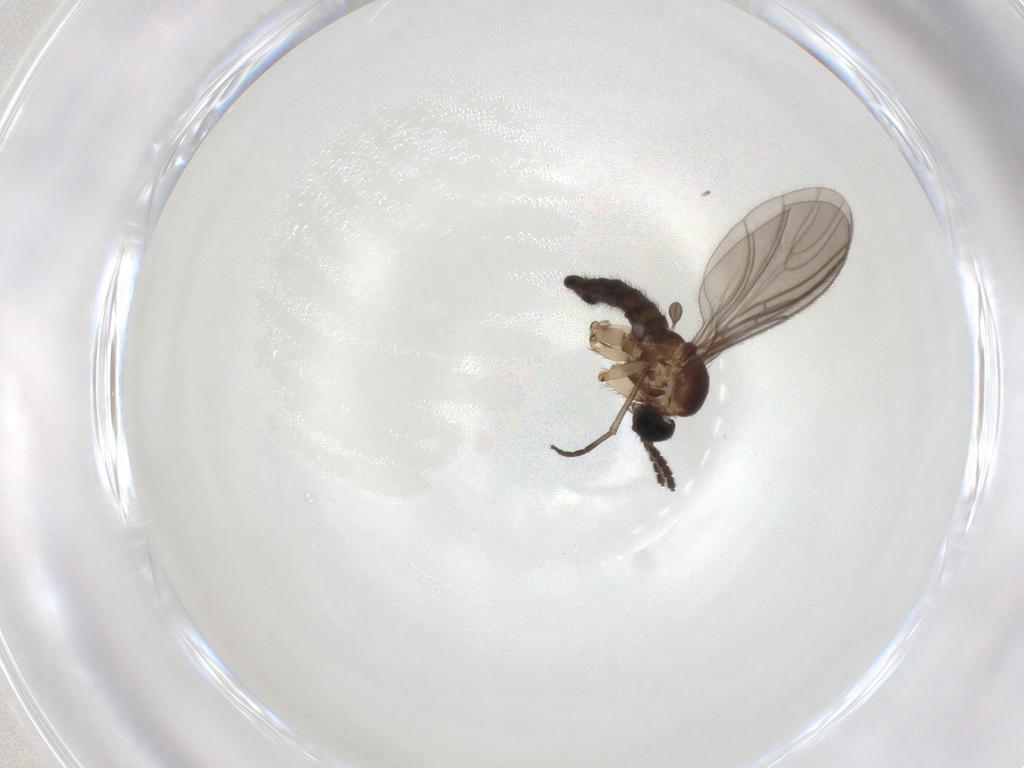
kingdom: Animalia
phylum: Arthropoda
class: Insecta
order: Diptera
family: Sciaridae
